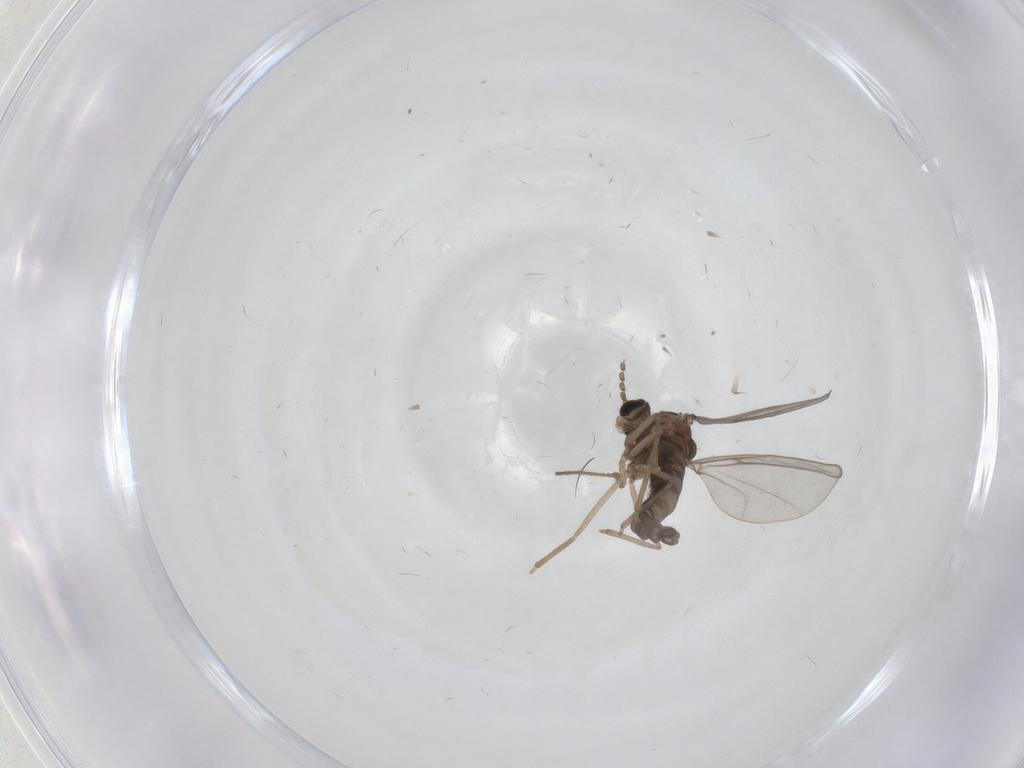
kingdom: Animalia
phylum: Arthropoda
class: Insecta
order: Diptera
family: Cecidomyiidae
